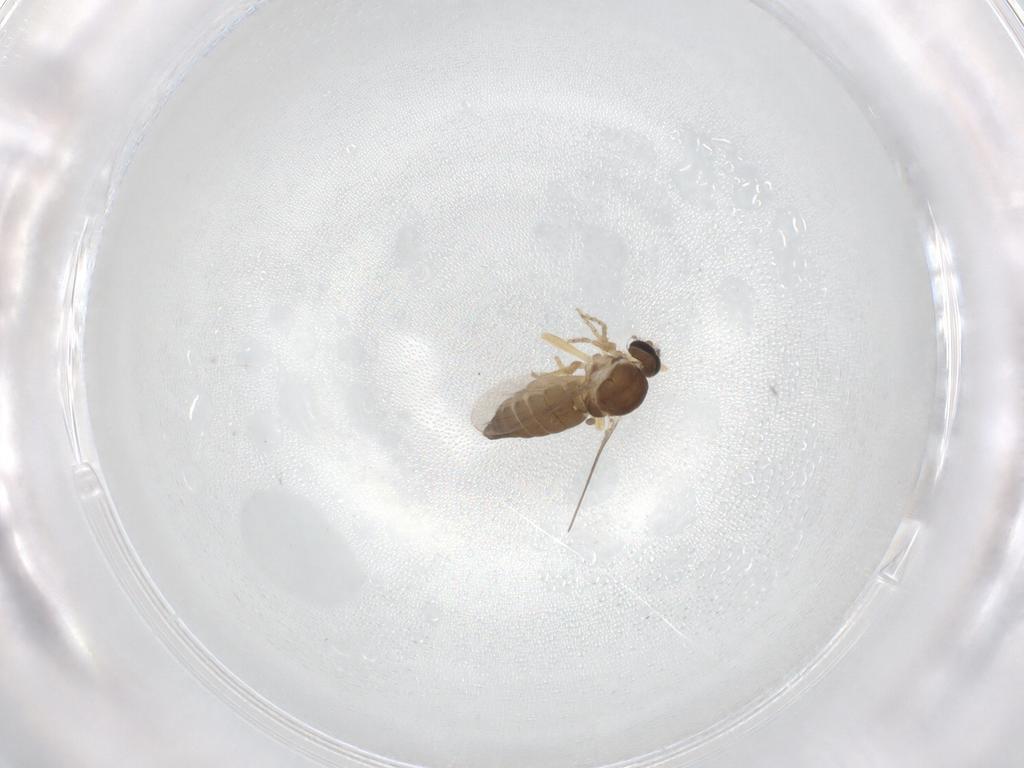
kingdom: Animalia
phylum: Arthropoda
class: Insecta
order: Diptera
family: Ceratopogonidae
